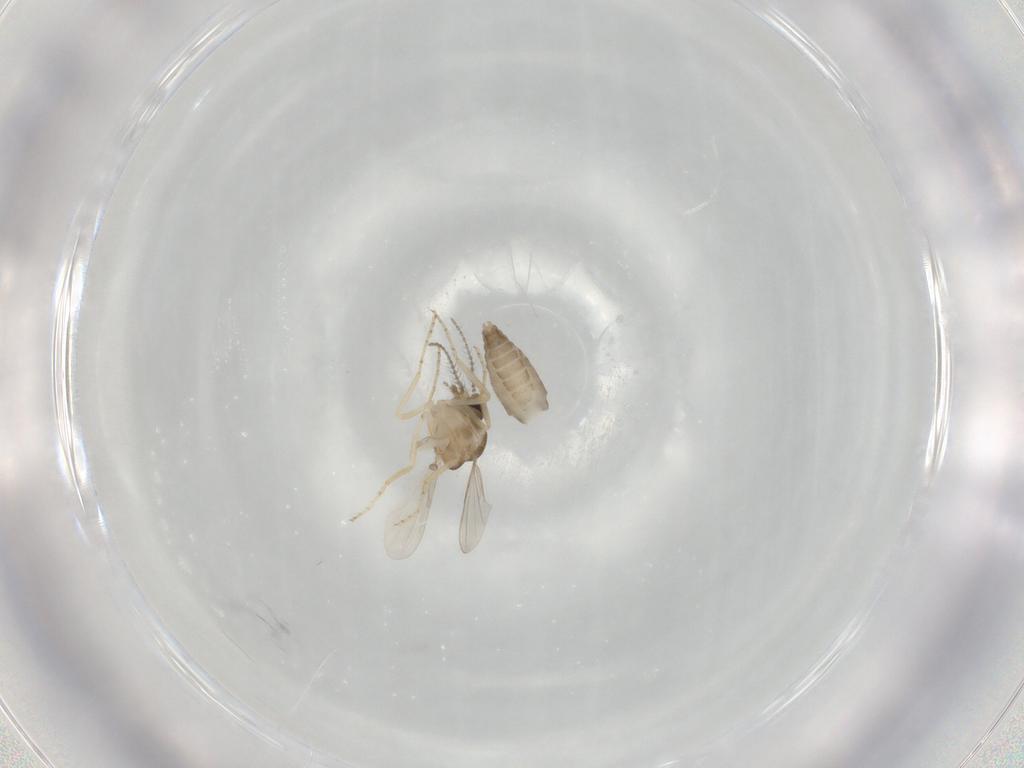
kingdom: Animalia
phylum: Arthropoda
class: Insecta
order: Diptera
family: Ceratopogonidae
